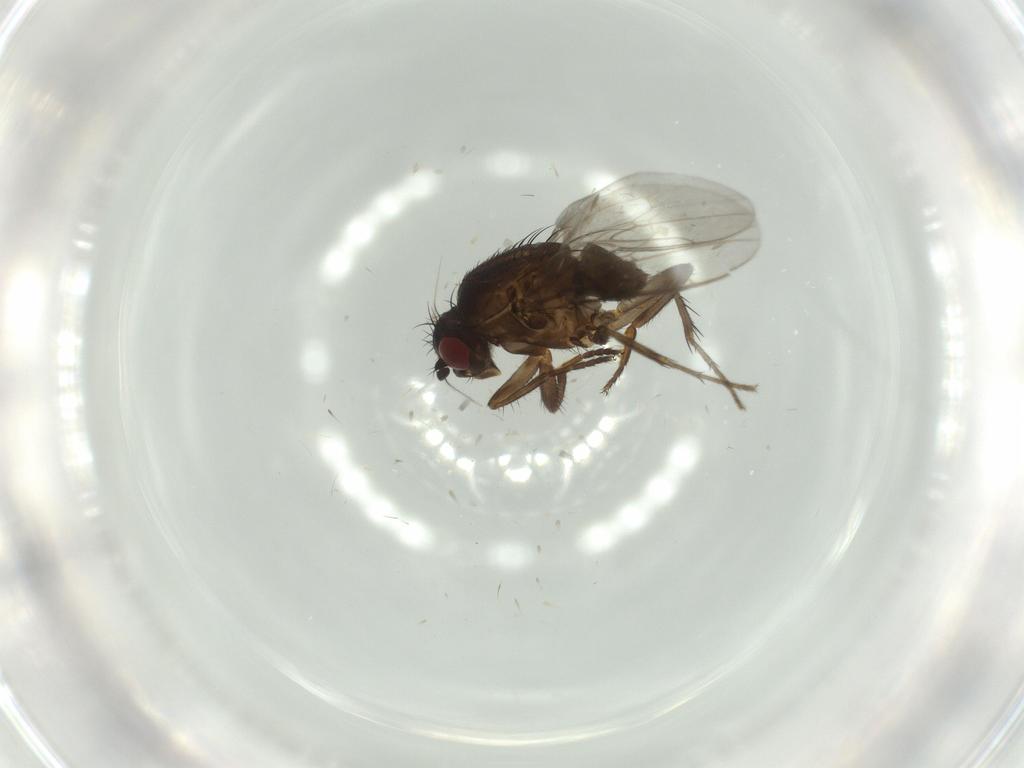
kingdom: Animalia
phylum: Arthropoda
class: Insecta
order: Diptera
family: Sphaeroceridae
